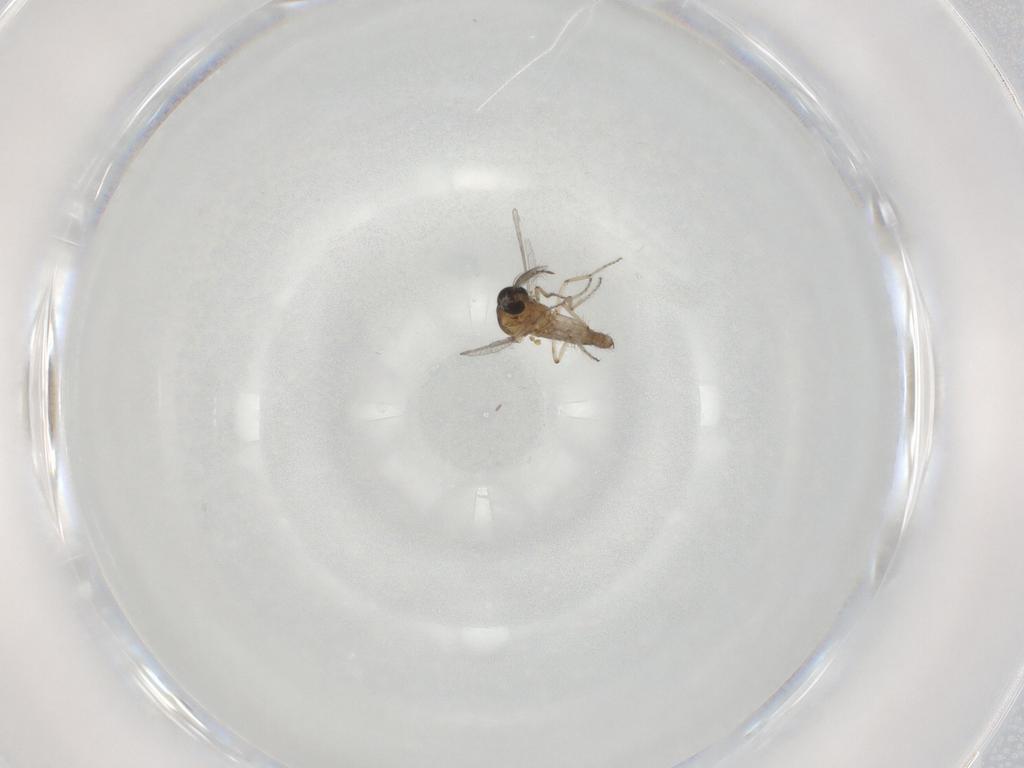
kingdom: Animalia
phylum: Arthropoda
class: Insecta
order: Diptera
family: Ceratopogonidae
